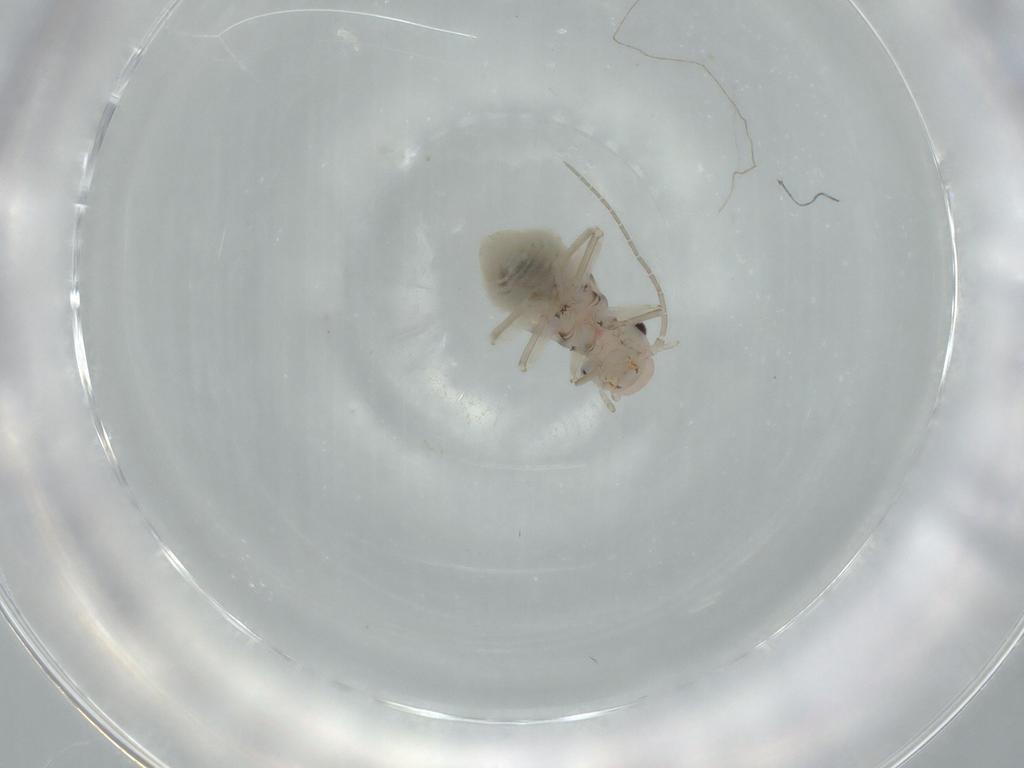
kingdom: Animalia
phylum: Arthropoda
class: Insecta
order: Psocodea
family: Amphipsocidae
